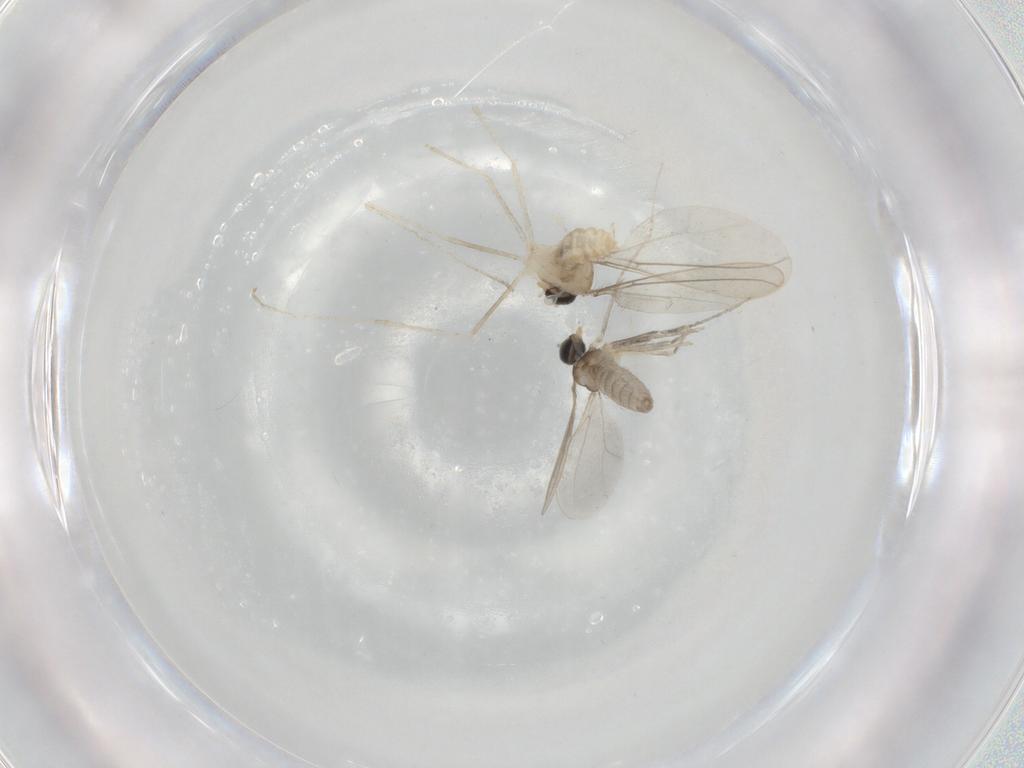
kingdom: Animalia
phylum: Arthropoda
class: Insecta
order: Diptera
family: Cecidomyiidae
